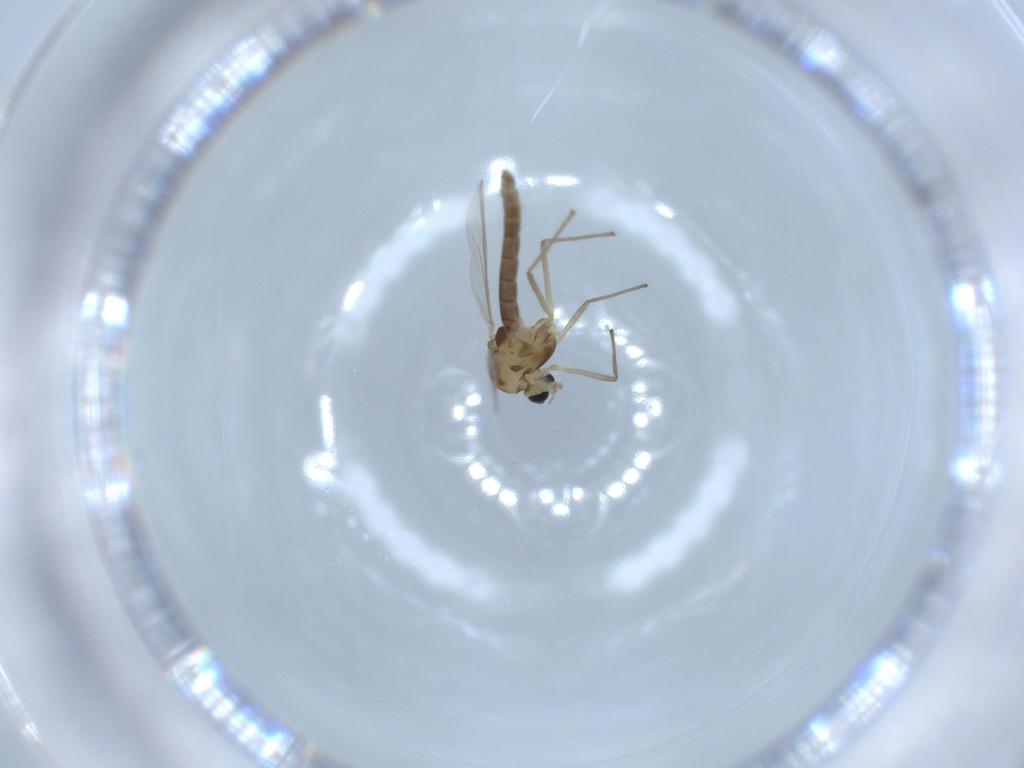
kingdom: Animalia
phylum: Arthropoda
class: Insecta
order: Diptera
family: Chironomidae
